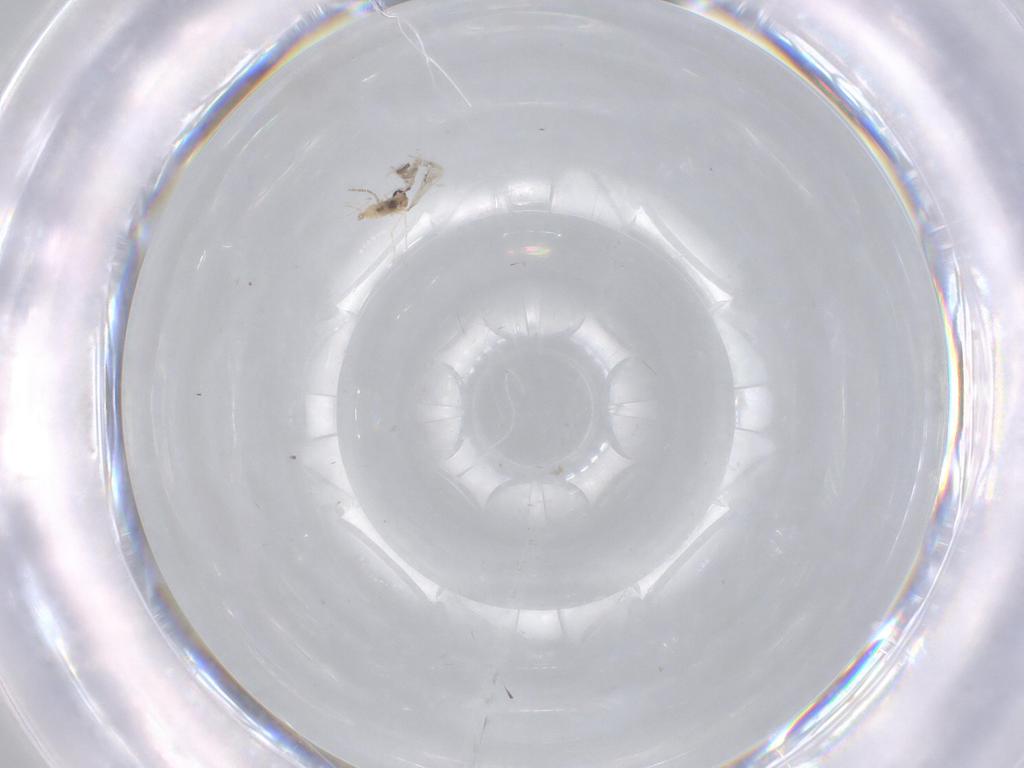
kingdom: Animalia
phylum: Arthropoda
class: Insecta
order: Diptera
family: Cecidomyiidae
